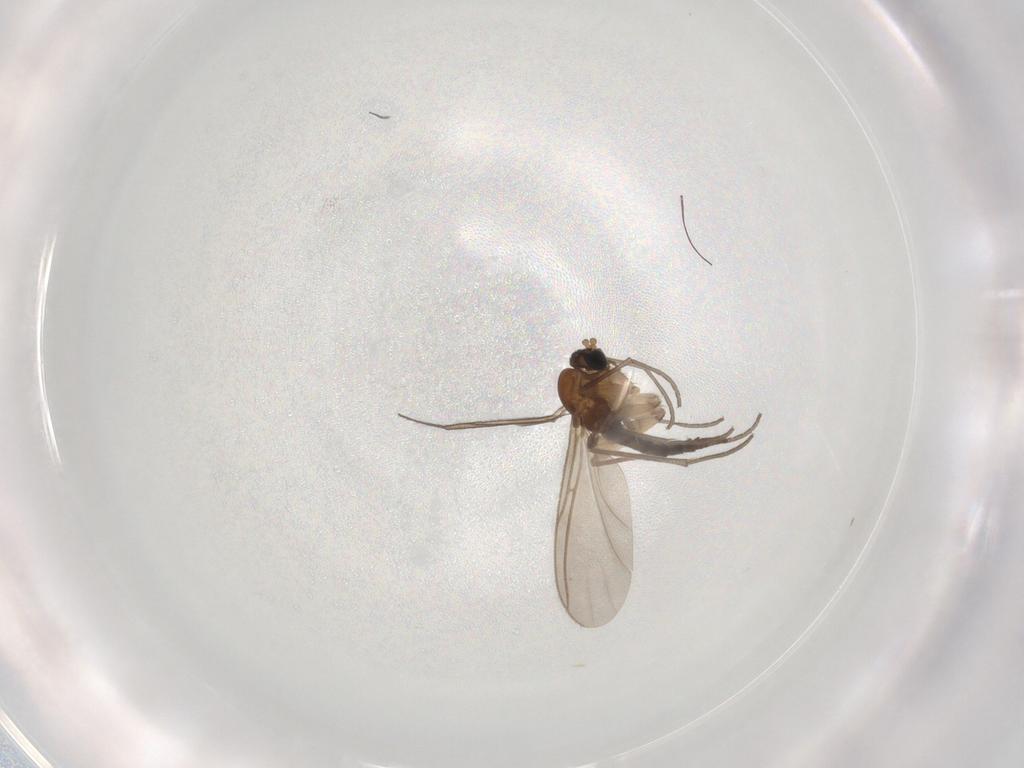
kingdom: Animalia
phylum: Arthropoda
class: Insecta
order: Diptera
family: Sciaridae
